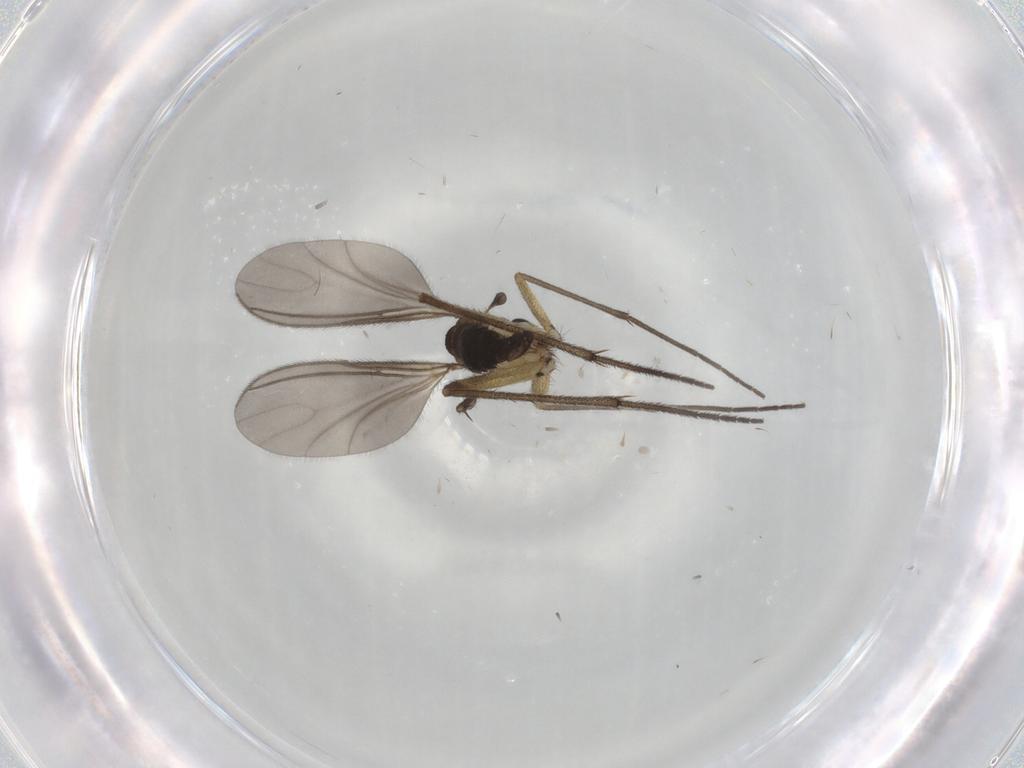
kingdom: Animalia
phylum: Arthropoda
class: Insecta
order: Diptera
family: Sciaridae
